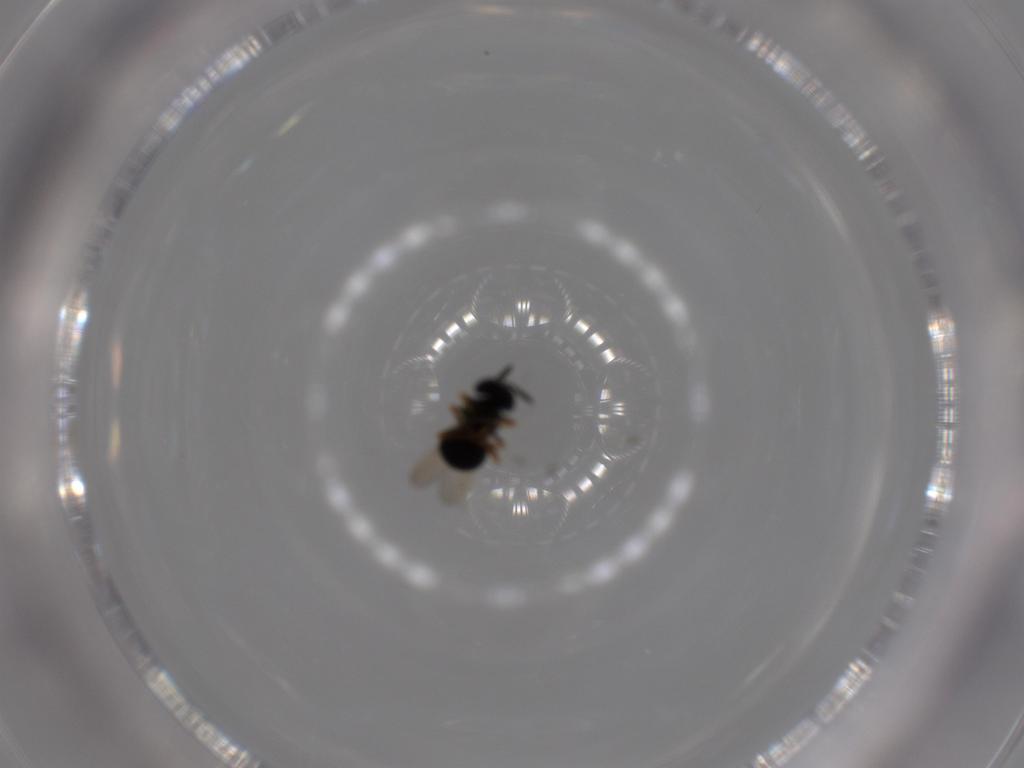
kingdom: Animalia
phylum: Arthropoda
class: Insecta
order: Hymenoptera
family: Scelionidae
